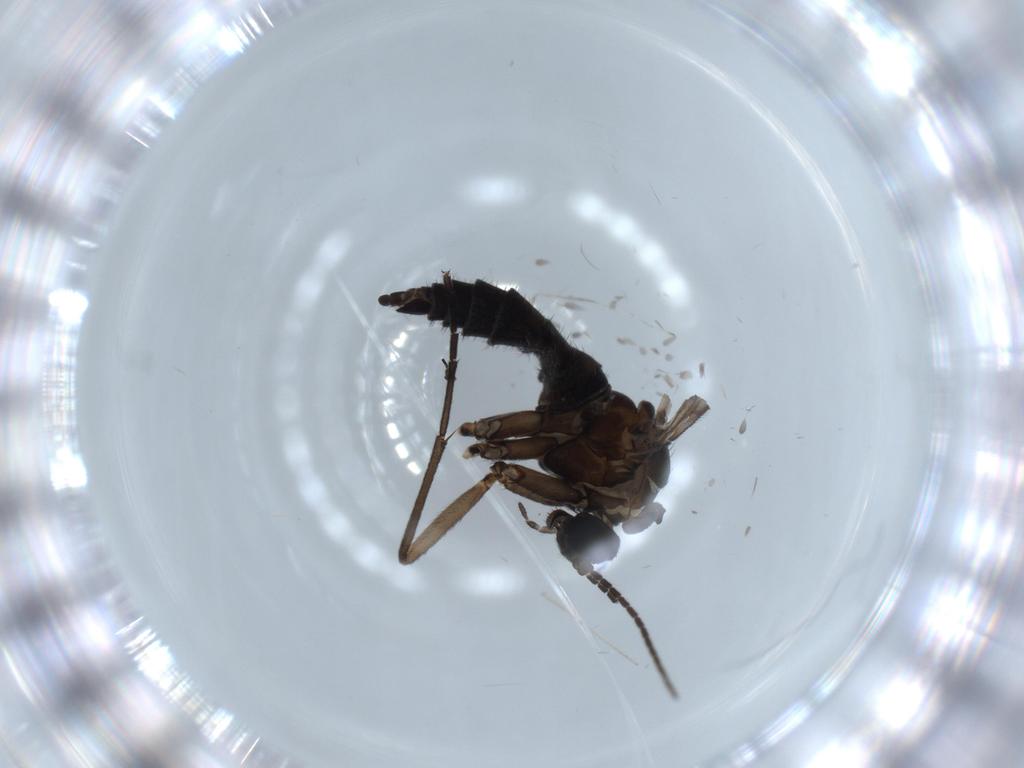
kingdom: Animalia
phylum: Arthropoda
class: Insecta
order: Diptera
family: Sciaridae
